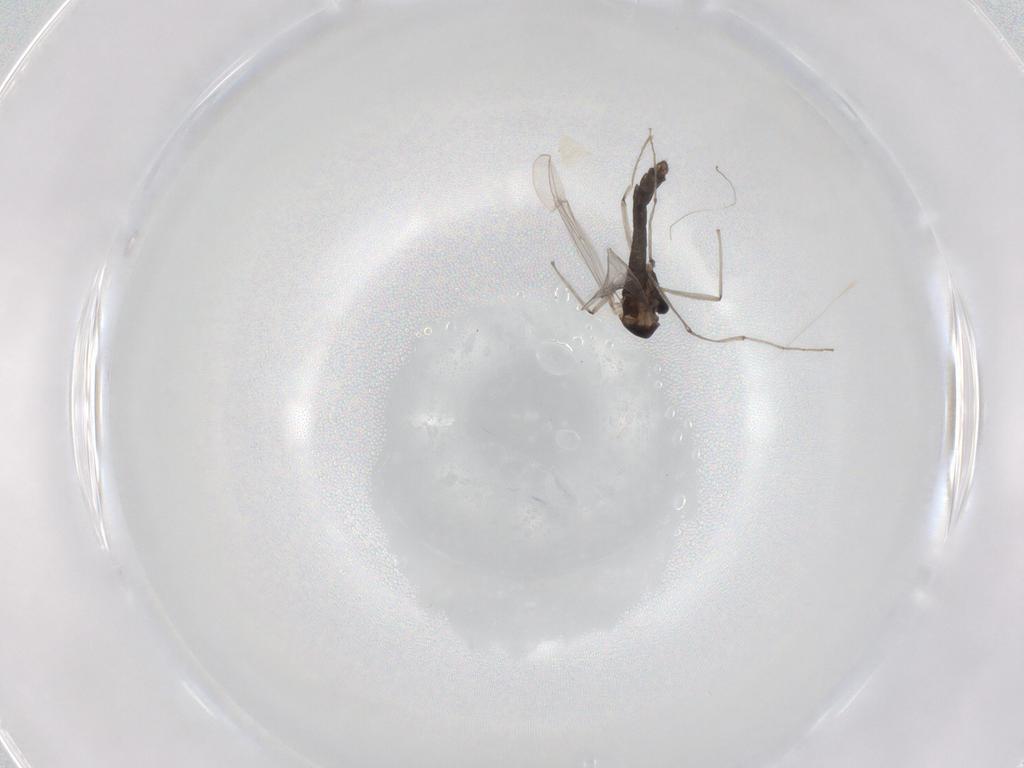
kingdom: Animalia
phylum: Arthropoda
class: Insecta
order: Diptera
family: Chironomidae
